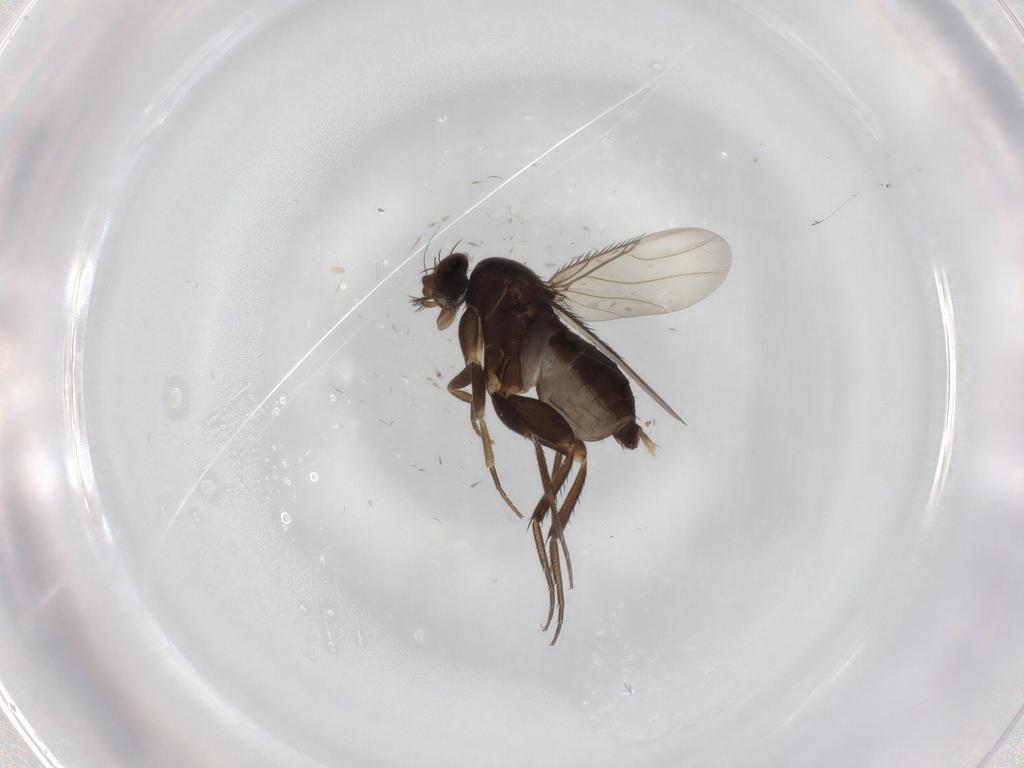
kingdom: Animalia
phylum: Arthropoda
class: Insecta
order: Diptera
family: Phoridae
